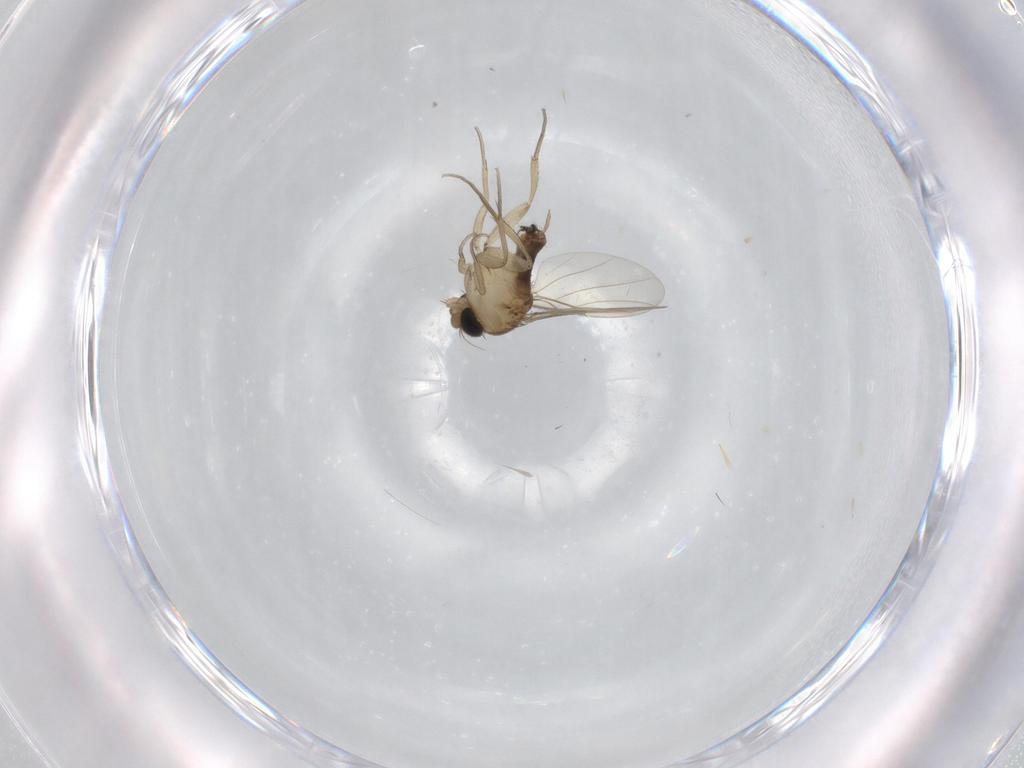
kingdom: Animalia
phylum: Arthropoda
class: Insecta
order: Diptera
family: Phoridae
